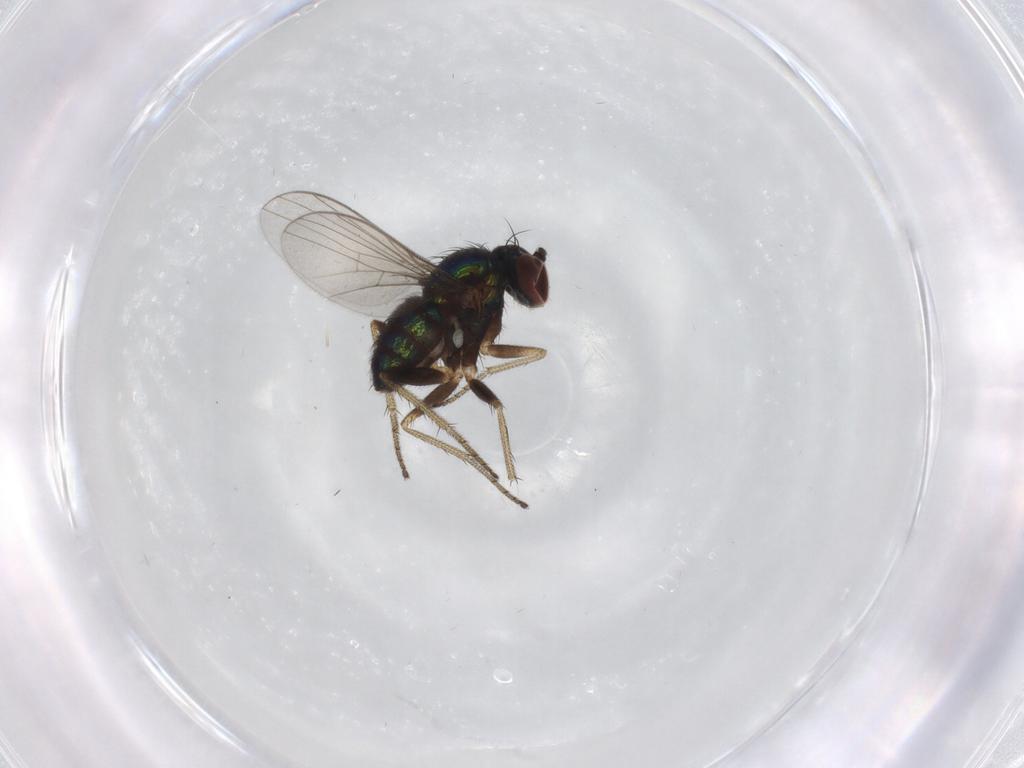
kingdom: Animalia
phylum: Arthropoda
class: Insecta
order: Diptera
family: Dolichopodidae
